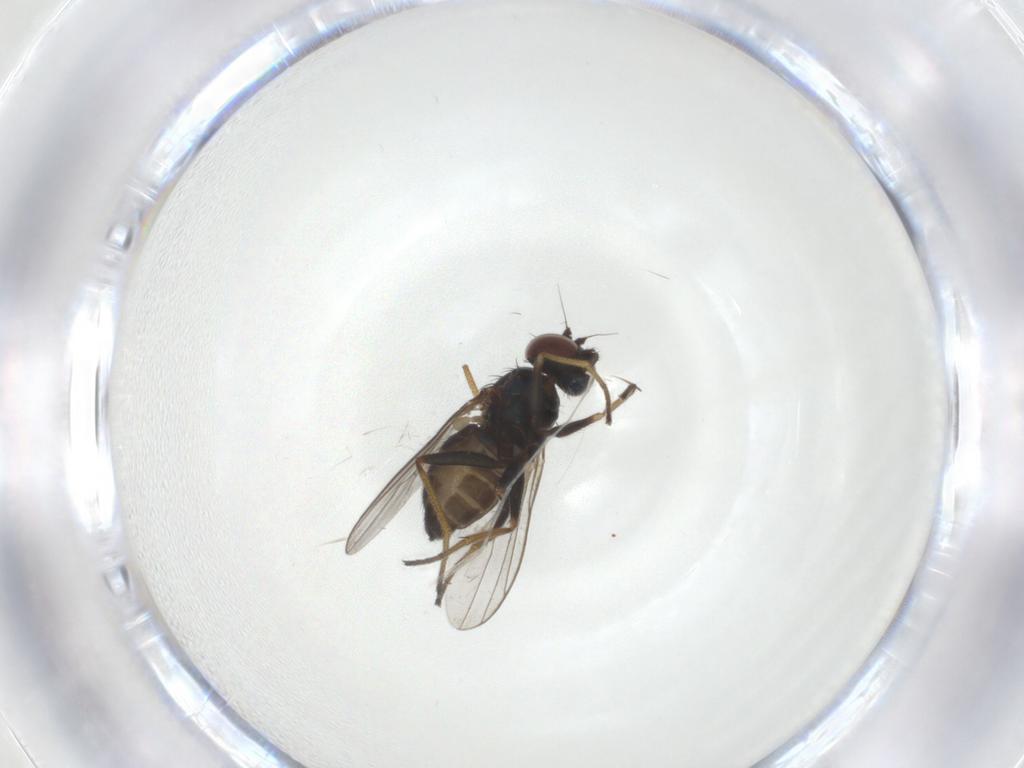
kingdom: Animalia
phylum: Arthropoda
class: Insecta
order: Diptera
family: Dolichopodidae
